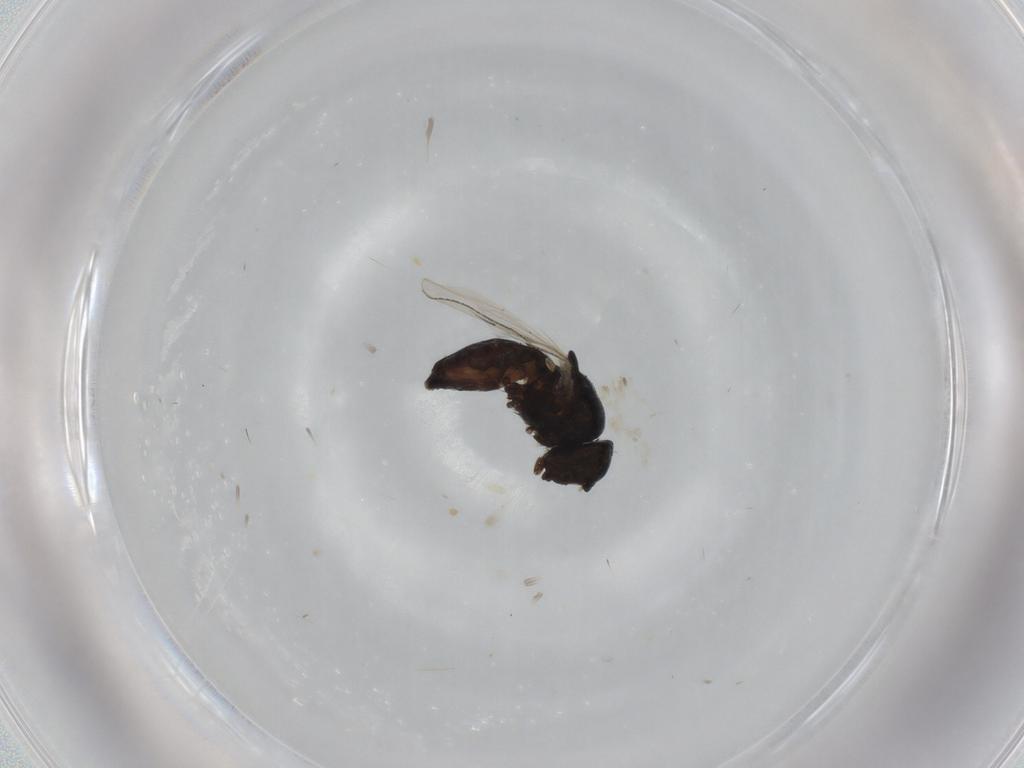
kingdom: Animalia
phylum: Arthropoda
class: Insecta
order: Diptera
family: Milichiidae
